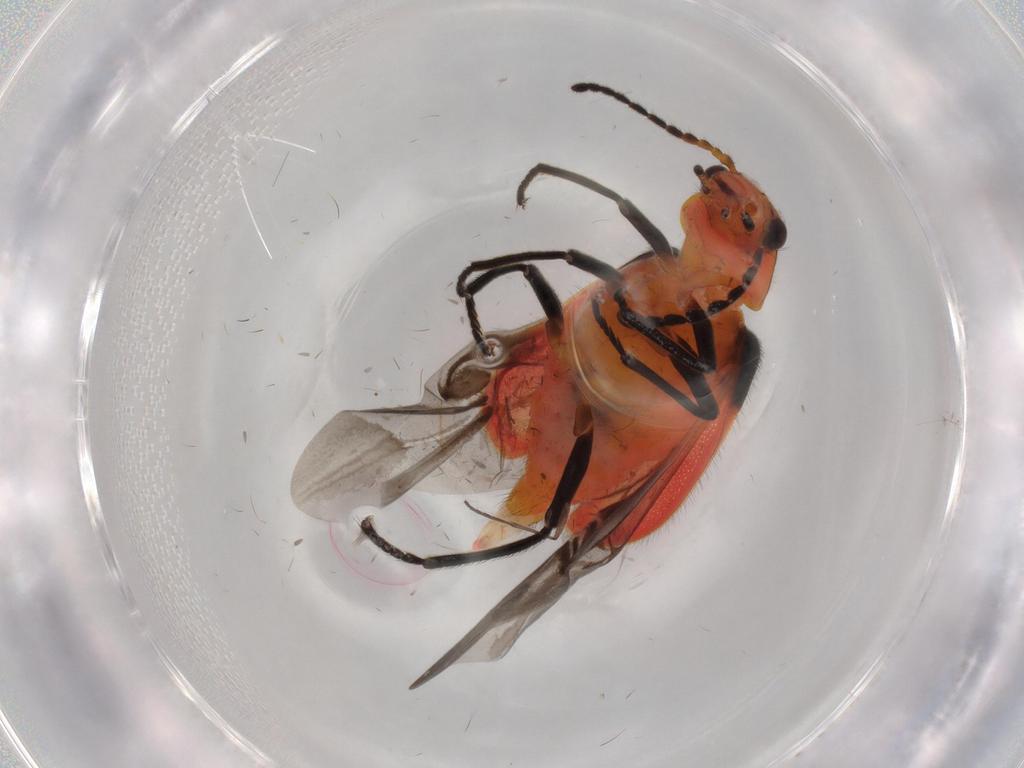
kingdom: Animalia
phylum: Arthropoda
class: Insecta
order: Coleoptera
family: Melyridae
